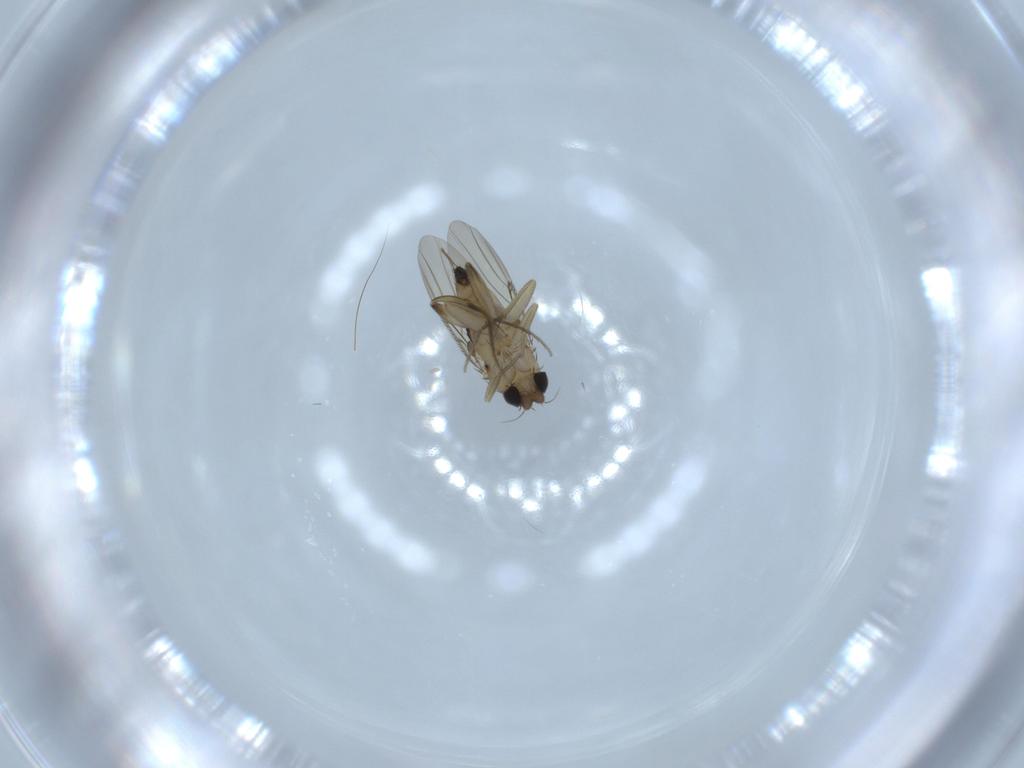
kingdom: Animalia
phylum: Arthropoda
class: Insecta
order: Diptera
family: Phoridae
